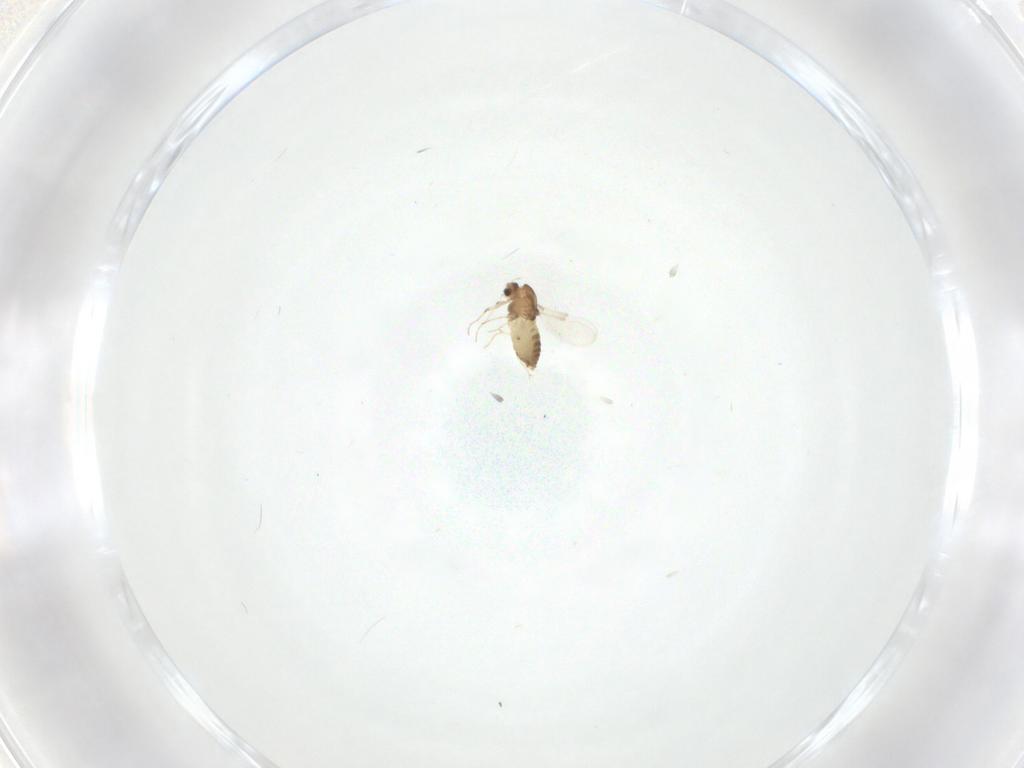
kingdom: Animalia
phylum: Arthropoda
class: Insecta
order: Diptera
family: Chironomidae
